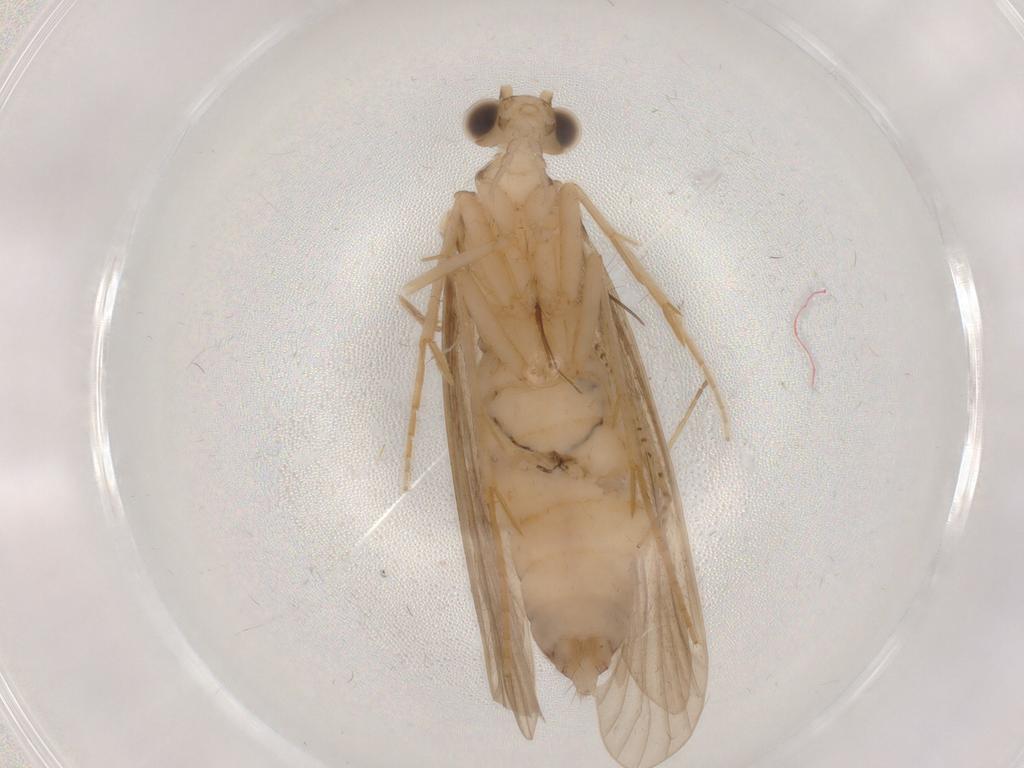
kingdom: Animalia
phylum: Arthropoda
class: Insecta
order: Trichoptera
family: Ecnomidae
